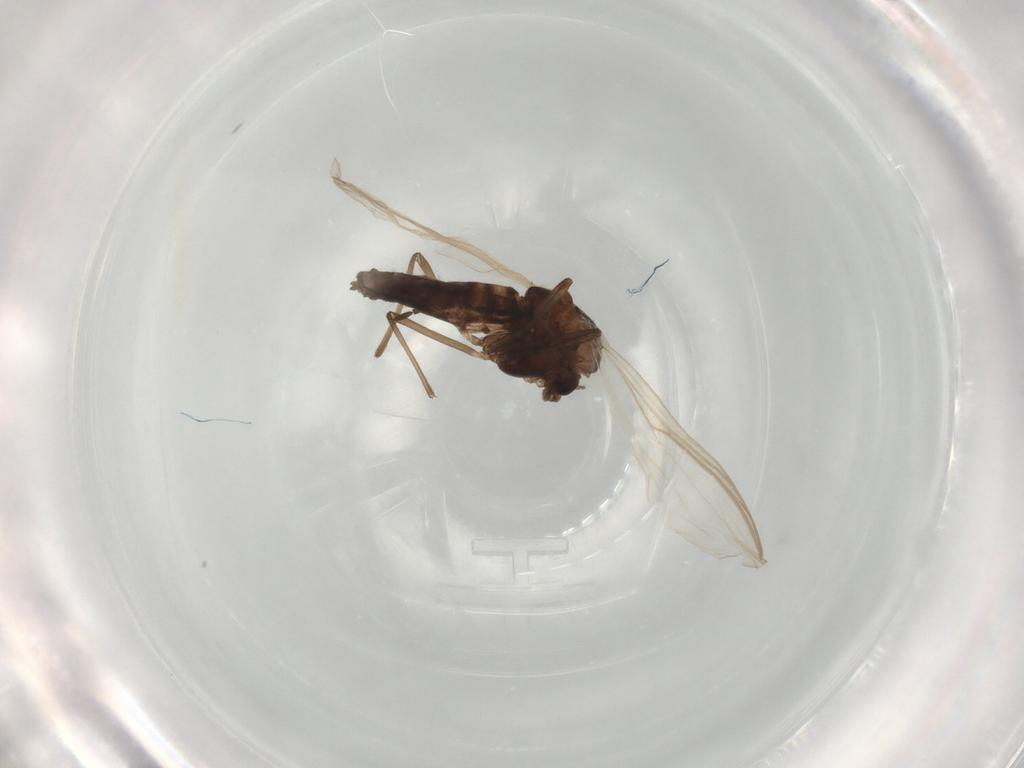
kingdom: Animalia
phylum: Arthropoda
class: Insecta
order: Diptera
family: Chironomidae
